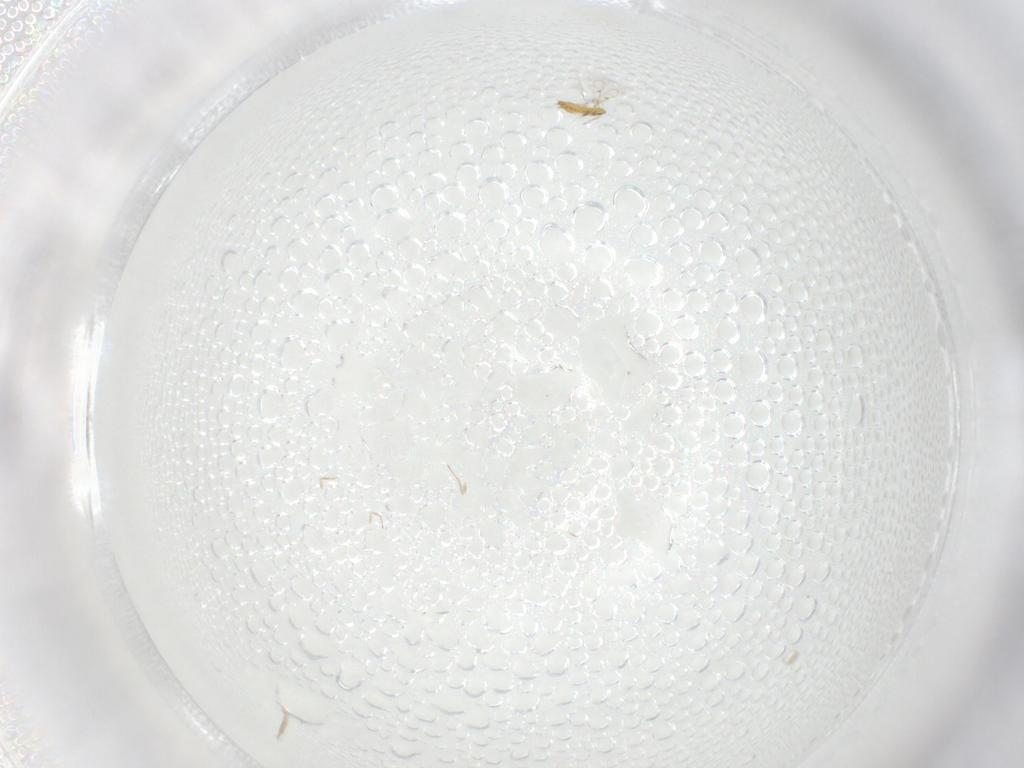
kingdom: Animalia
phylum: Arthropoda
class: Insecta
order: Hymenoptera
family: Trichogrammatidae
